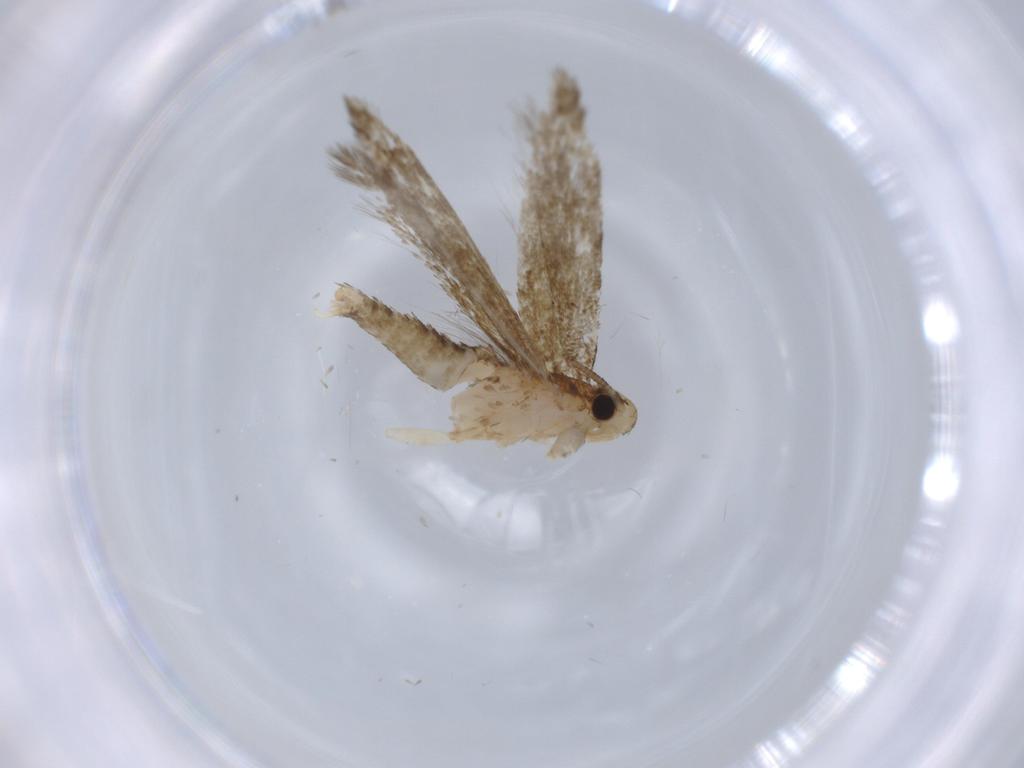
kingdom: Animalia
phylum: Arthropoda
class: Insecta
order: Lepidoptera
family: Tineidae
